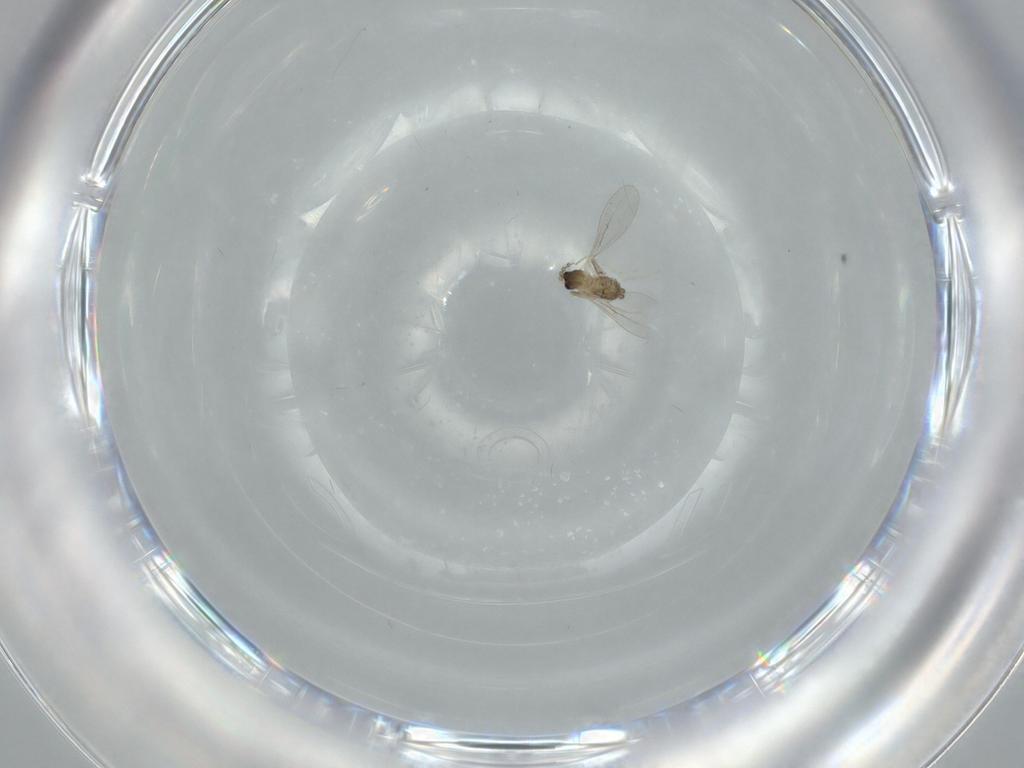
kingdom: Animalia
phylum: Arthropoda
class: Insecta
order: Diptera
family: Cecidomyiidae
